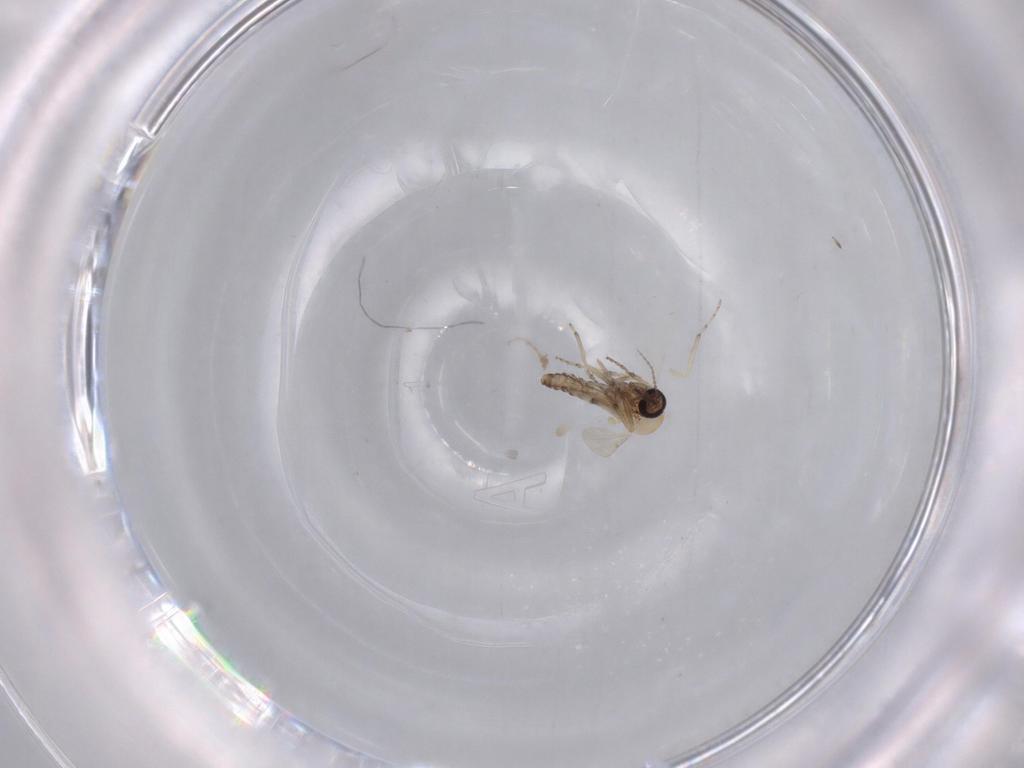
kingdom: Animalia
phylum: Arthropoda
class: Insecta
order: Diptera
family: Ceratopogonidae
